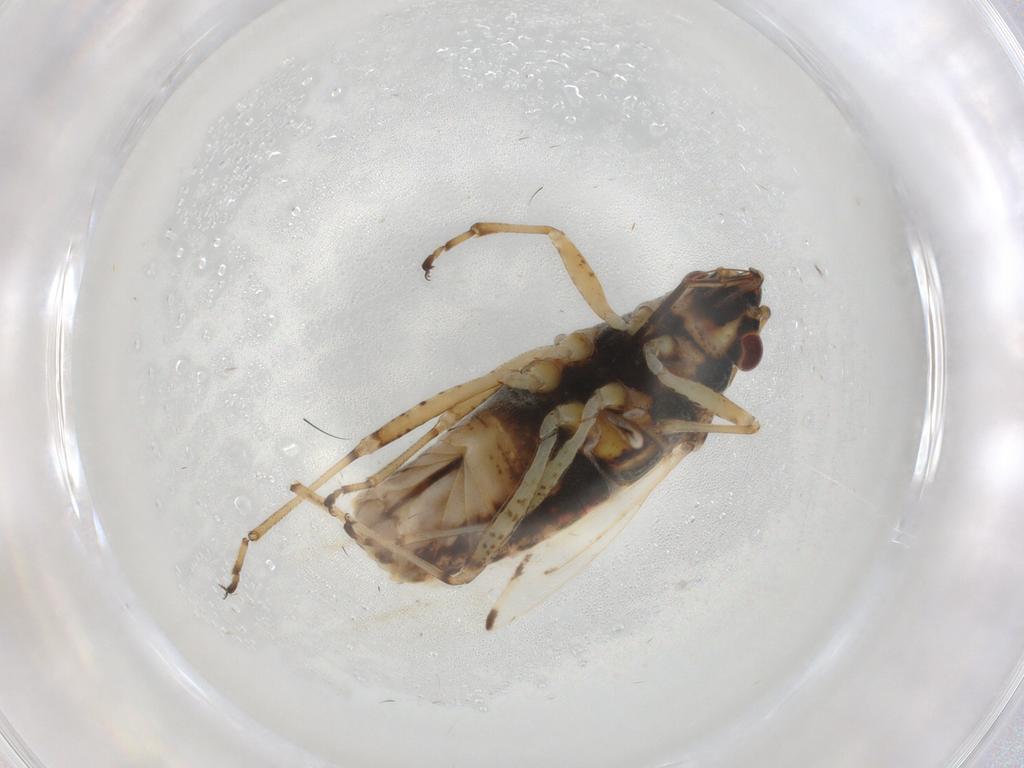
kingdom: Animalia
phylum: Arthropoda
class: Insecta
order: Hemiptera
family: Lygaeidae
